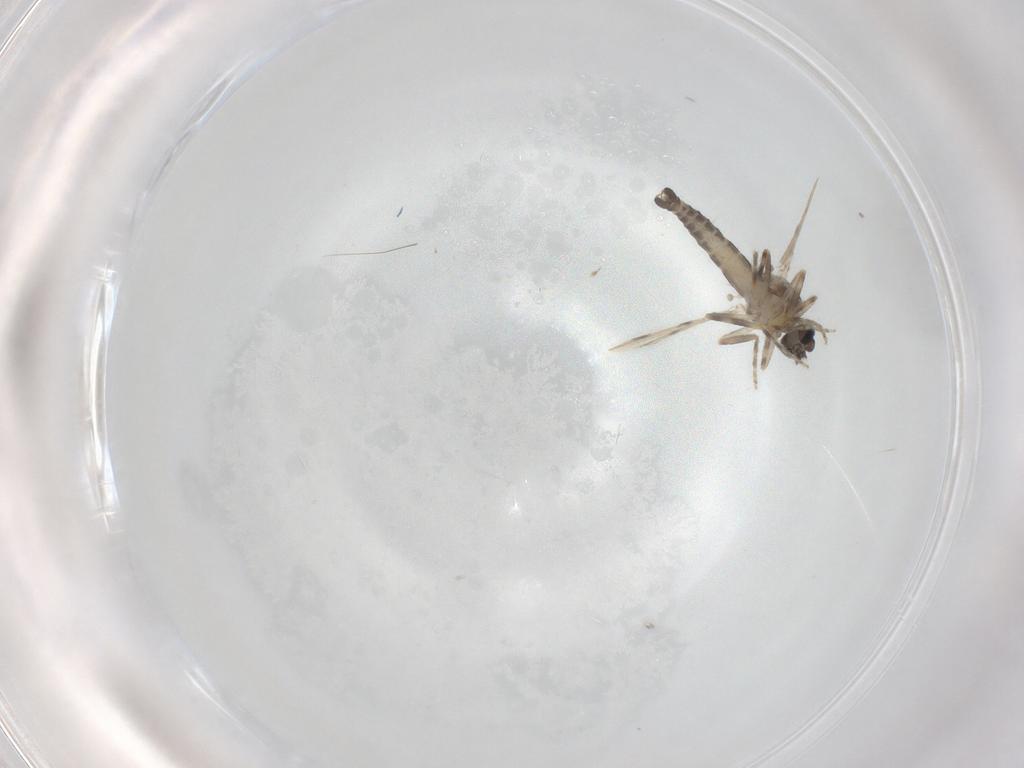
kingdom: Animalia
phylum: Arthropoda
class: Insecta
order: Diptera
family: Ceratopogonidae
